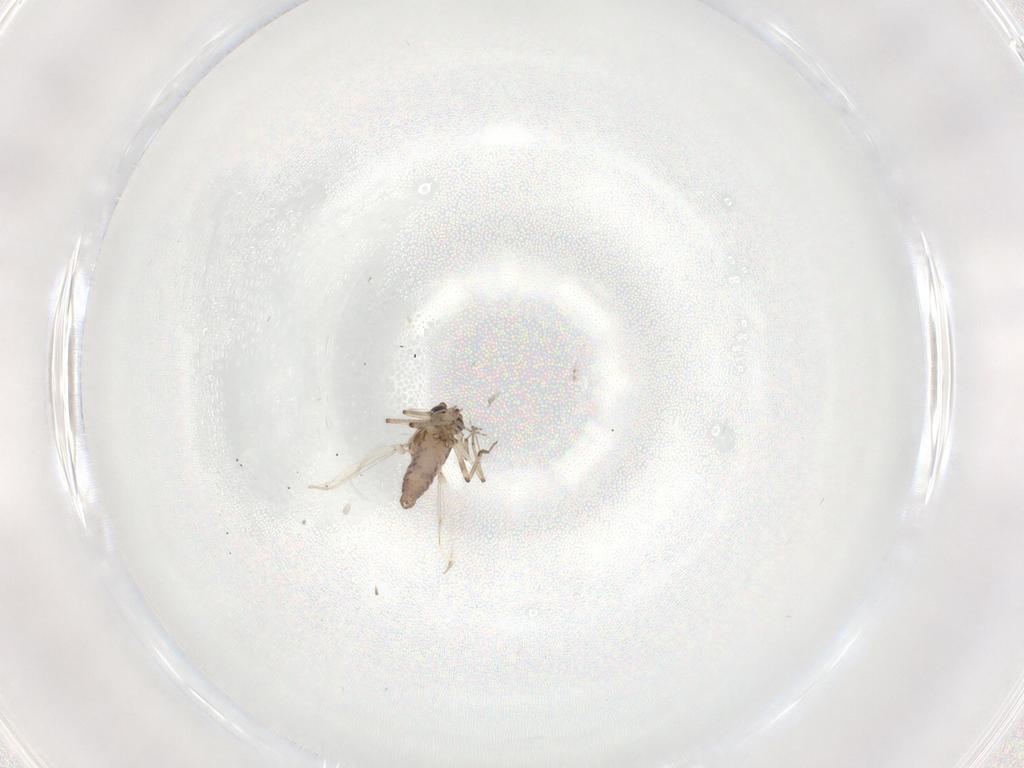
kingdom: Animalia
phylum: Arthropoda
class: Insecta
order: Diptera
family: Ceratopogonidae
